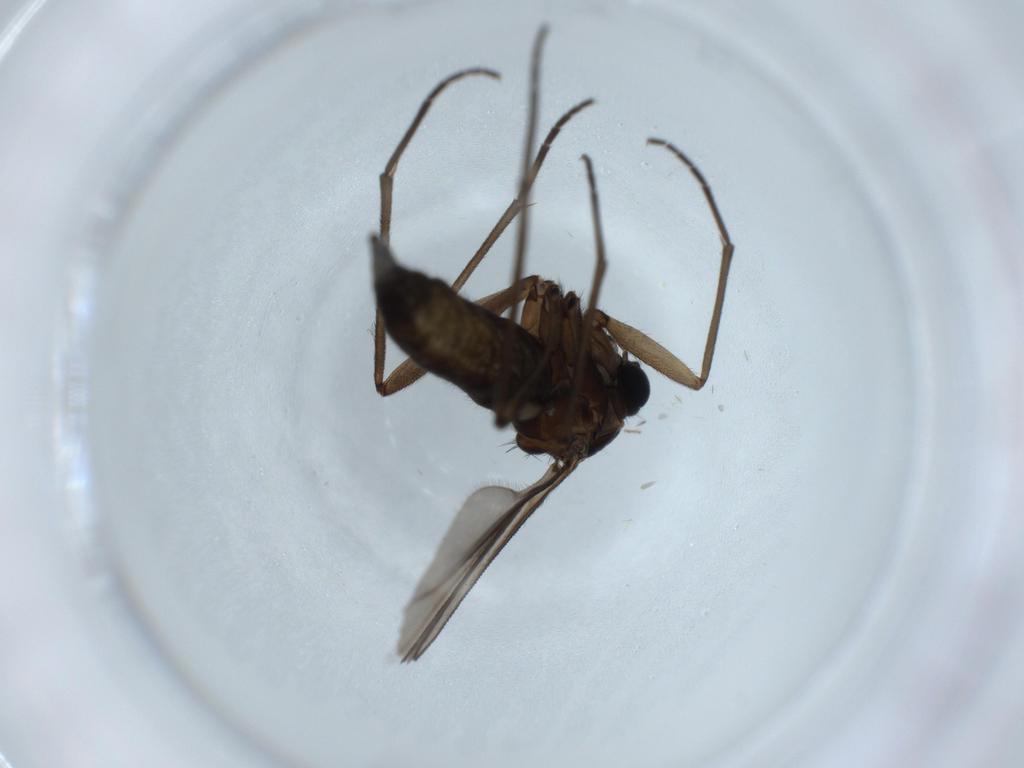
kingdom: Animalia
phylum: Arthropoda
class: Insecta
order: Diptera
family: Sciaridae
